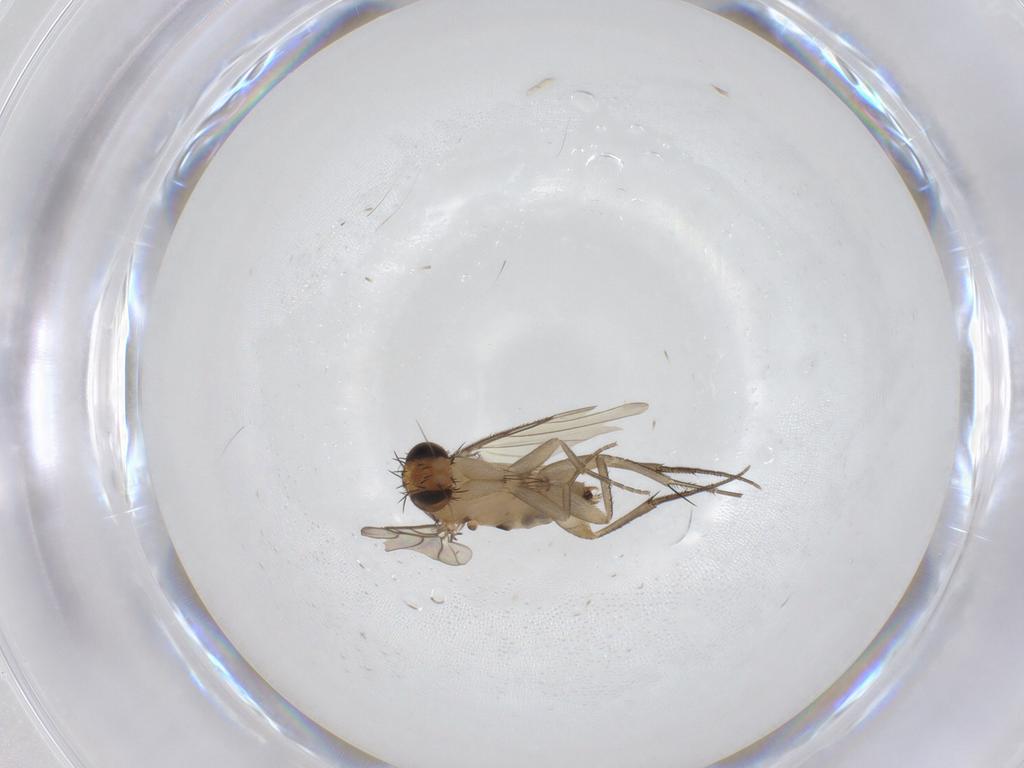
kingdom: Animalia
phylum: Arthropoda
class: Insecta
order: Diptera
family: Phoridae
